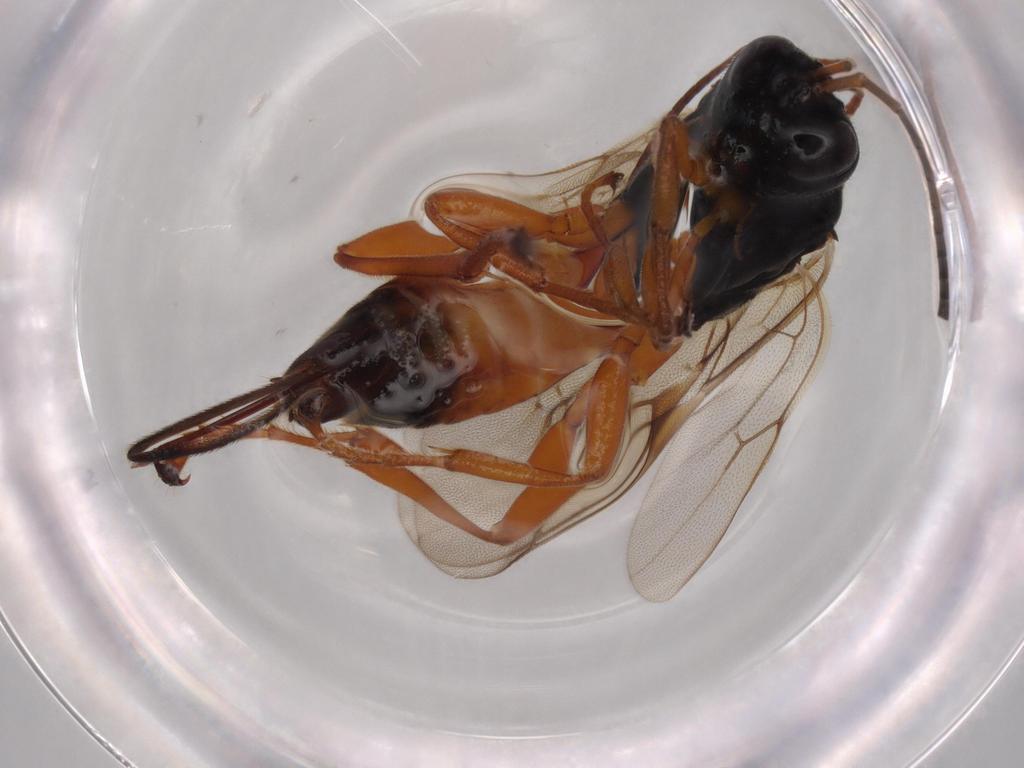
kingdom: Animalia
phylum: Arthropoda
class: Insecta
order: Hymenoptera
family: Ichneumonidae
